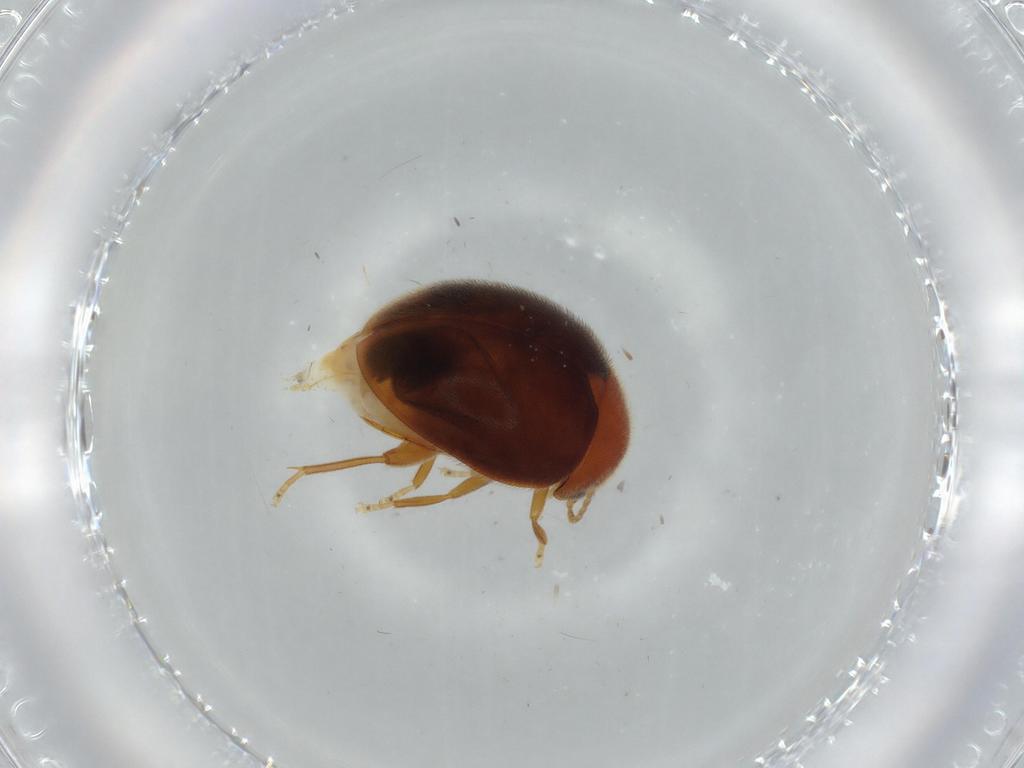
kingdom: Animalia
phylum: Arthropoda
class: Insecta
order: Coleoptera
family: Scirtidae
